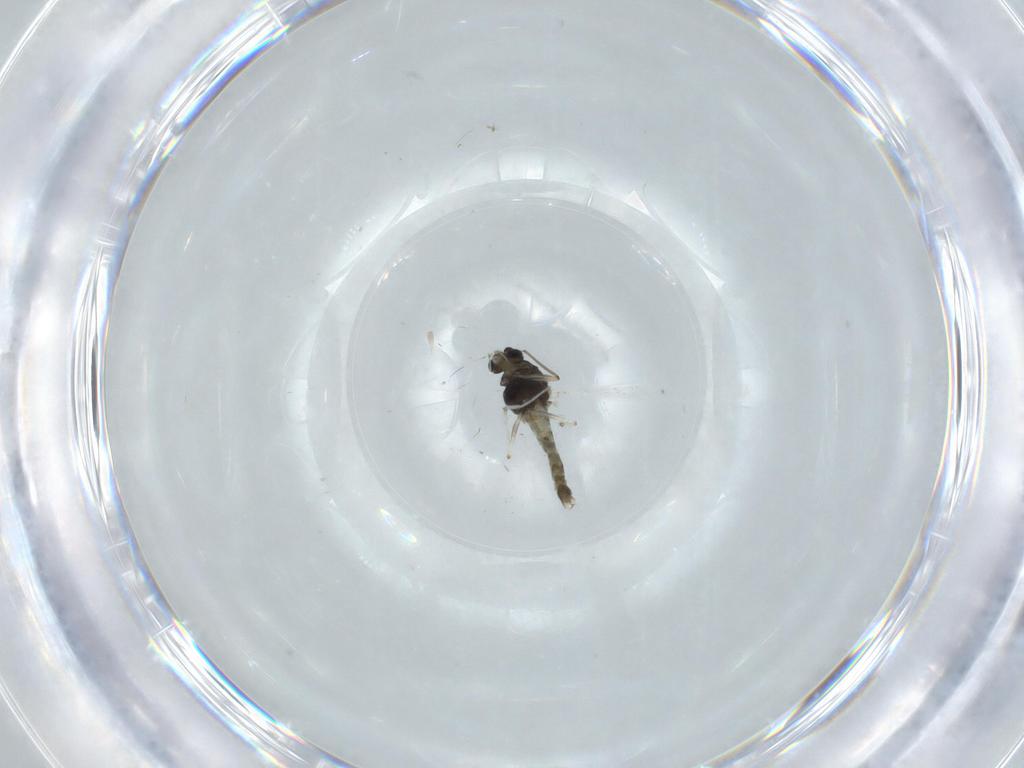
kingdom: Animalia
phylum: Arthropoda
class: Insecta
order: Diptera
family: Chironomidae
